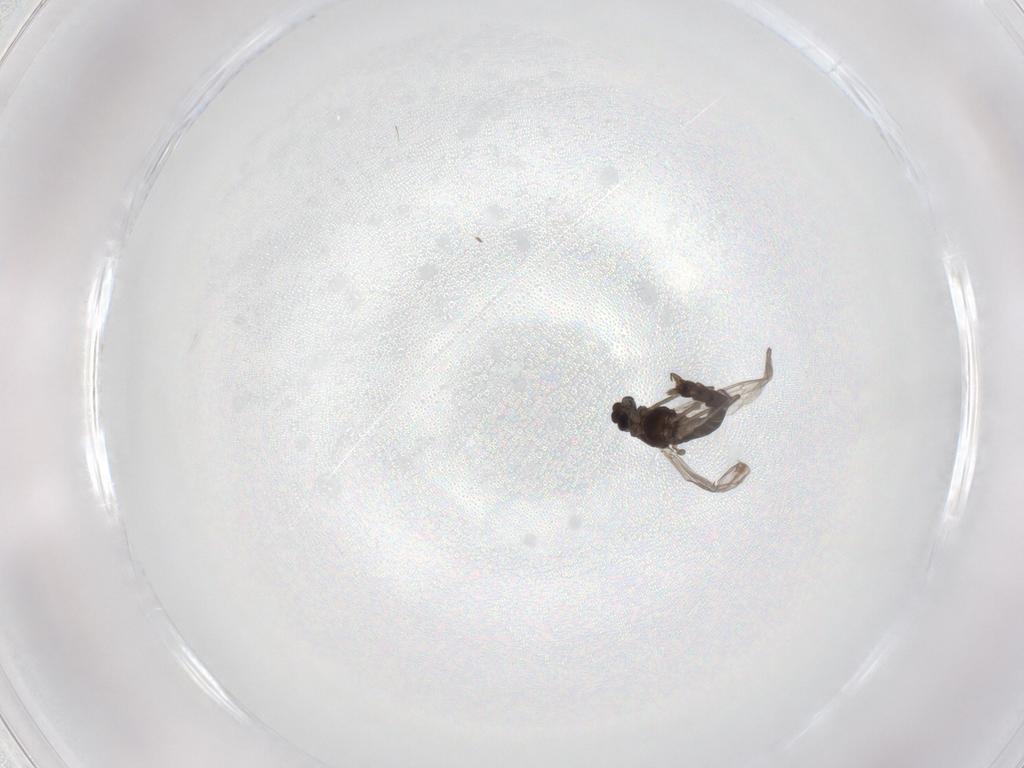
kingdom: Animalia
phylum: Arthropoda
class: Insecta
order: Diptera
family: Chironomidae
